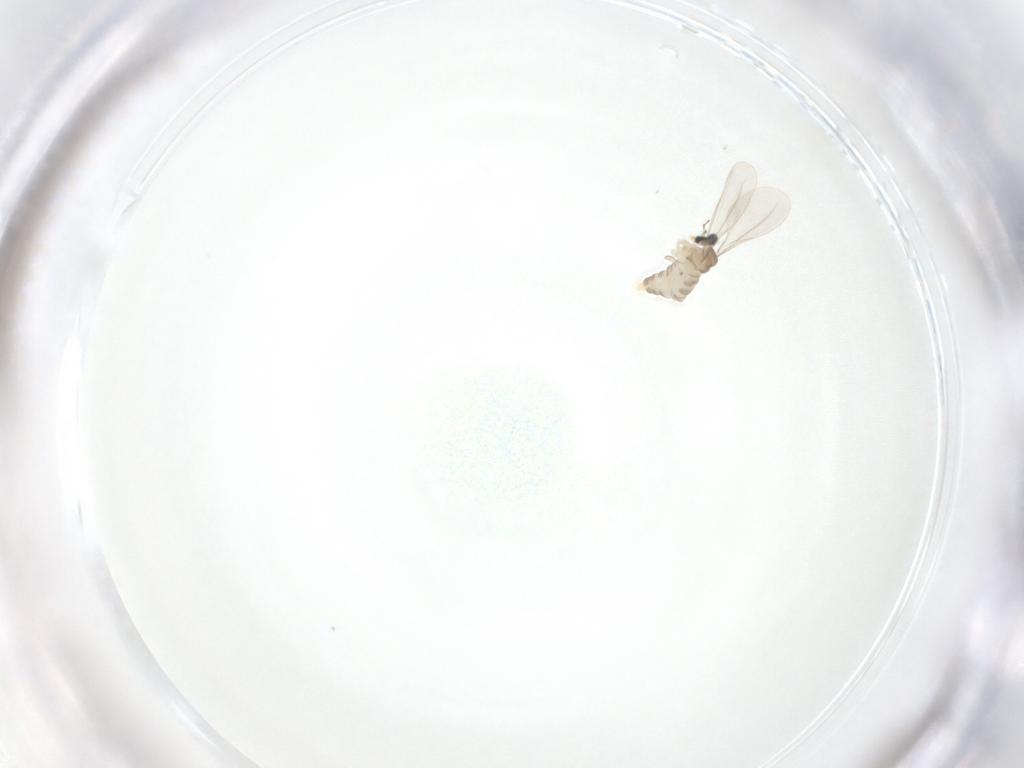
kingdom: Animalia
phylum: Arthropoda
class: Insecta
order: Diptera
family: Cecidomyiidae
